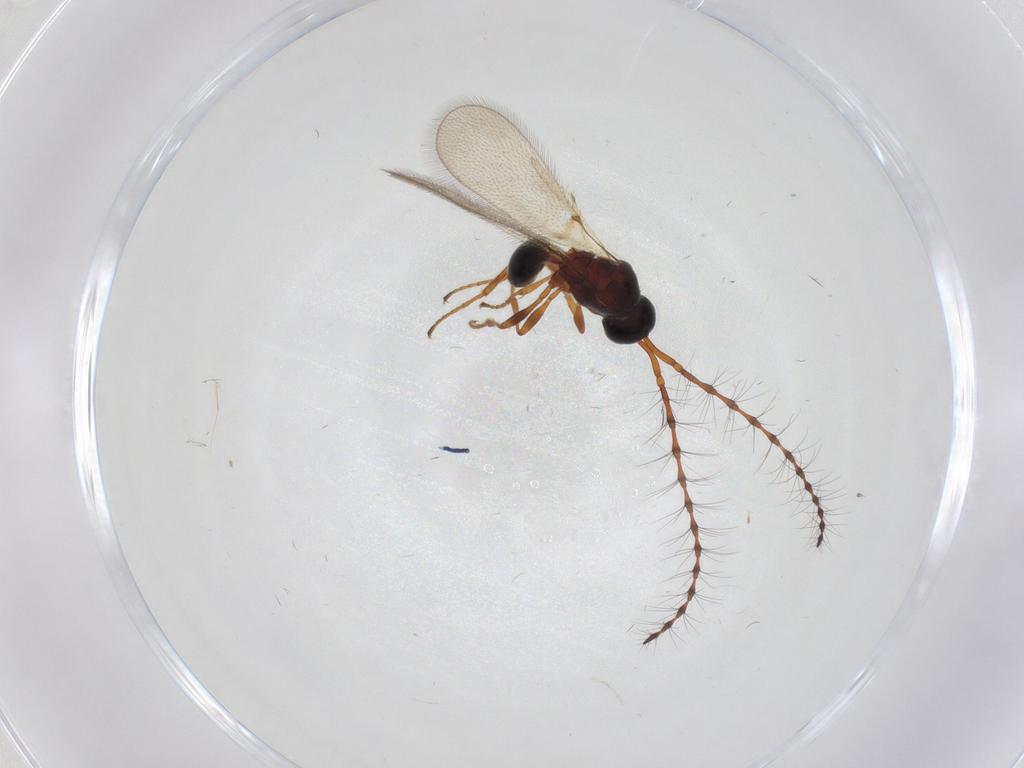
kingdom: Animalia
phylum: Arthropoda
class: Insecta
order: Hymenoptera
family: Diapriidae
